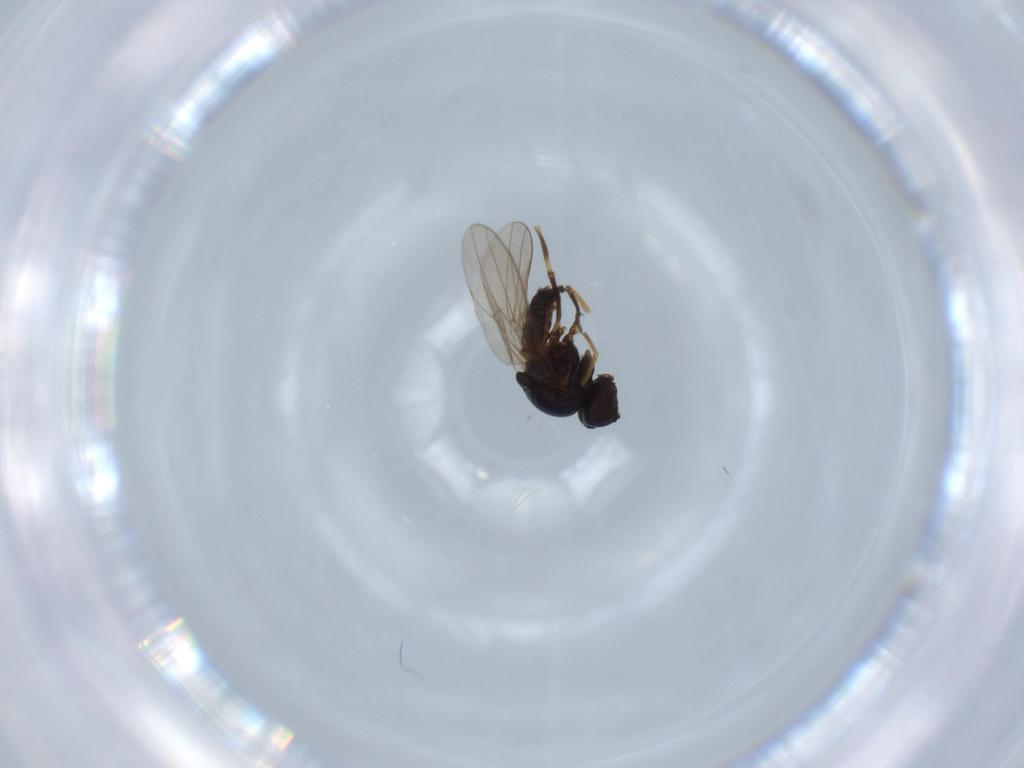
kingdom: Animalia
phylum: Arthropoda
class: Insecta
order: Diptera
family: Chloropidae
